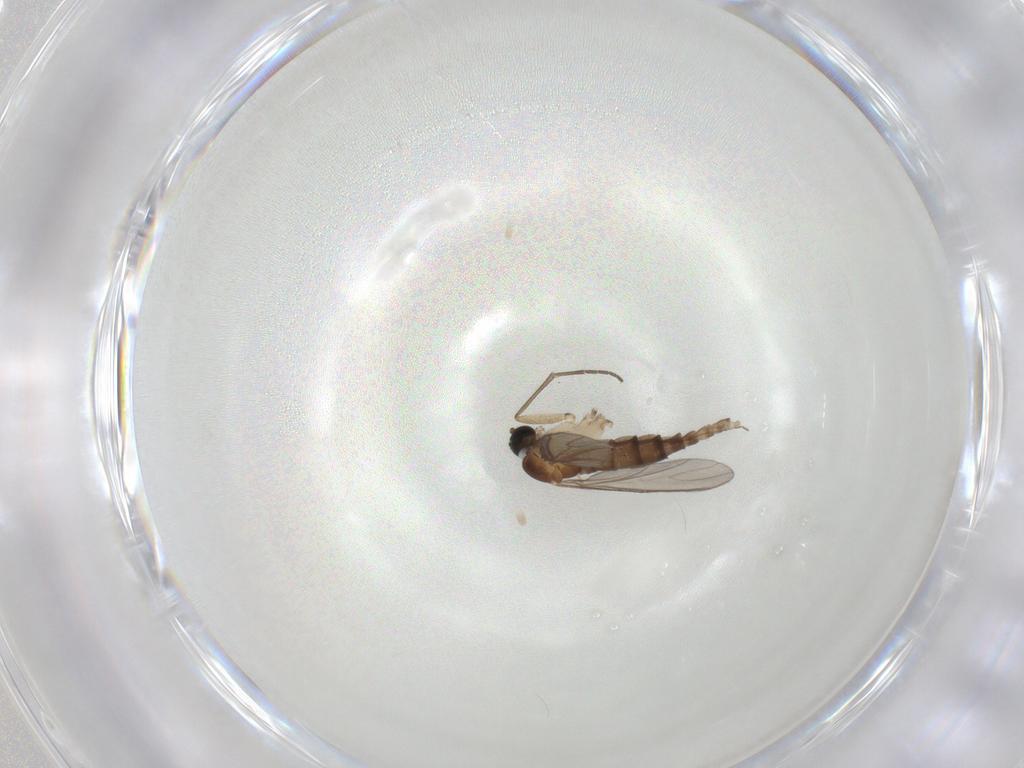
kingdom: Animalia
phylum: Arthropoda
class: Insecta
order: Diptera
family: Sciaridae
